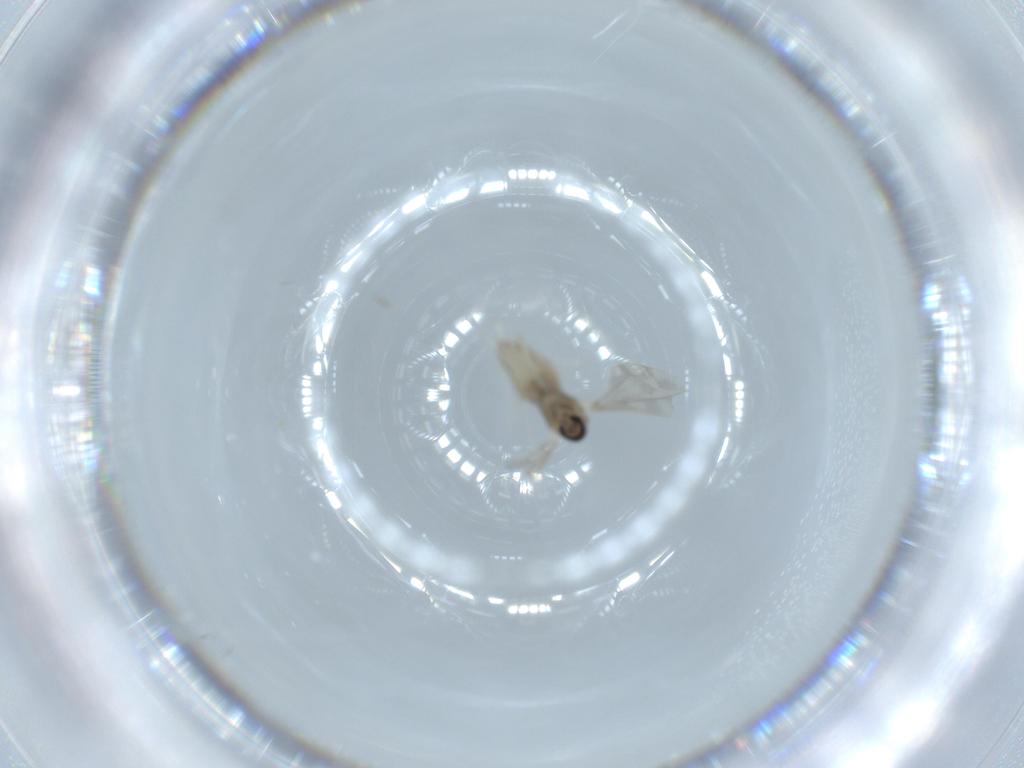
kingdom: Animalia
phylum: Arthropoda
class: Insecta
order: Diptera
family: Cecidomyiidae
